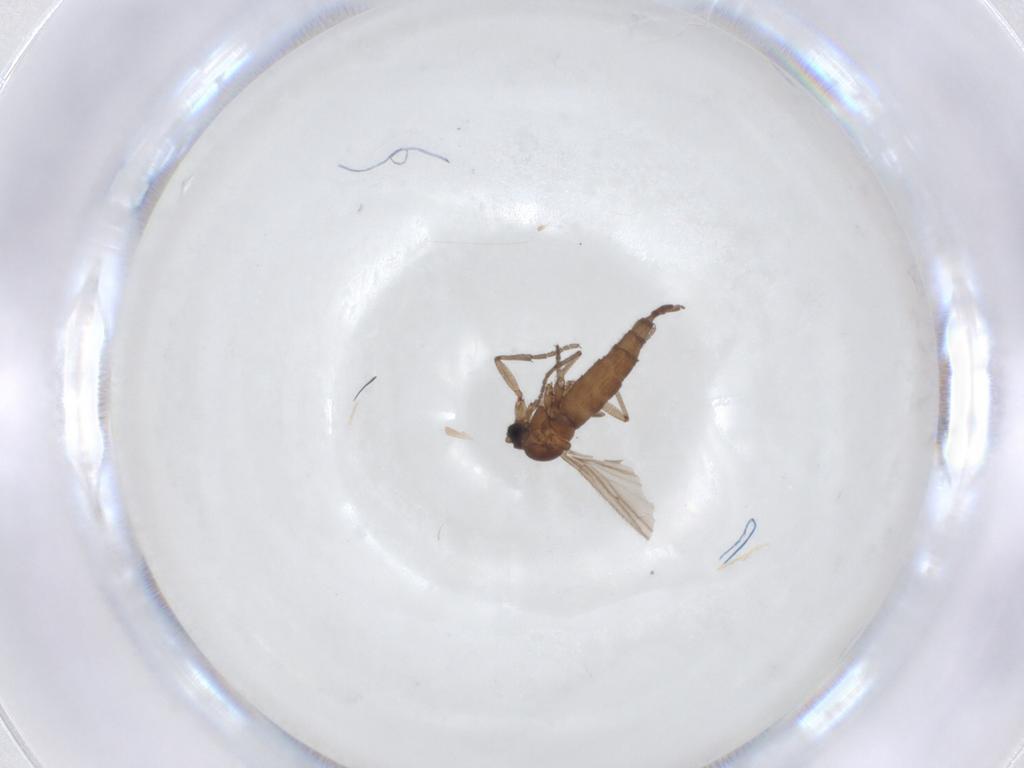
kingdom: Animalia
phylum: Arthropoda
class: Insecta
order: Diptera
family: Sciaridae
